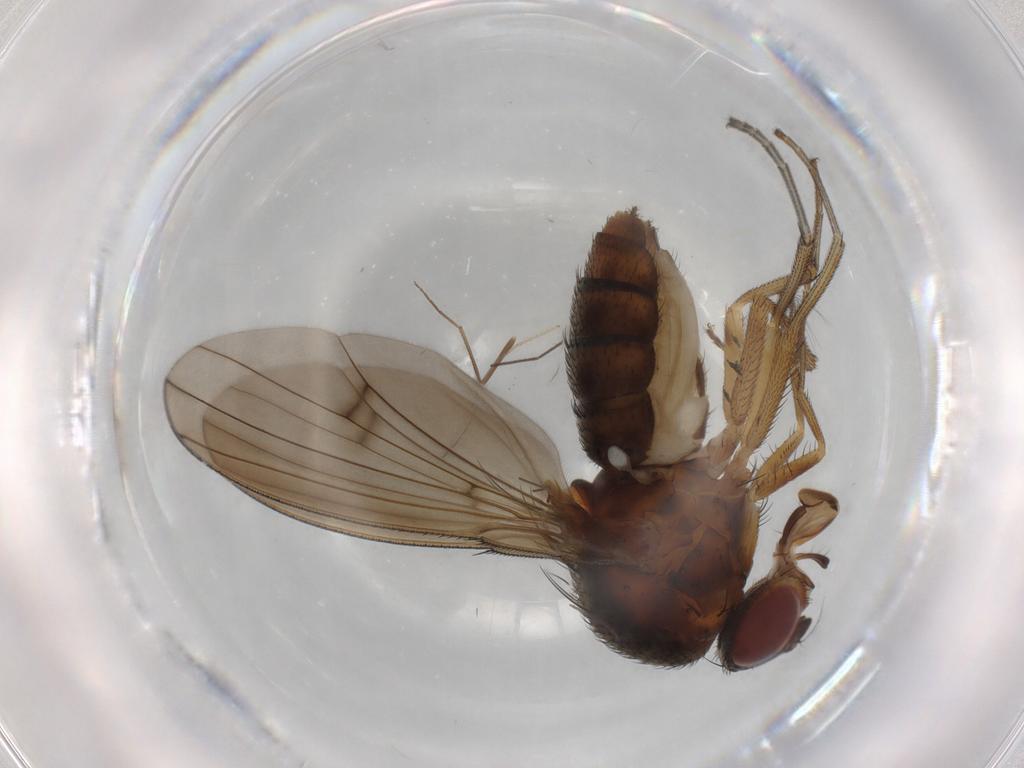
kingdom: Animalia
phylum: Arthropoda
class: Insecta
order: Diptera
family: Curtonotidae
